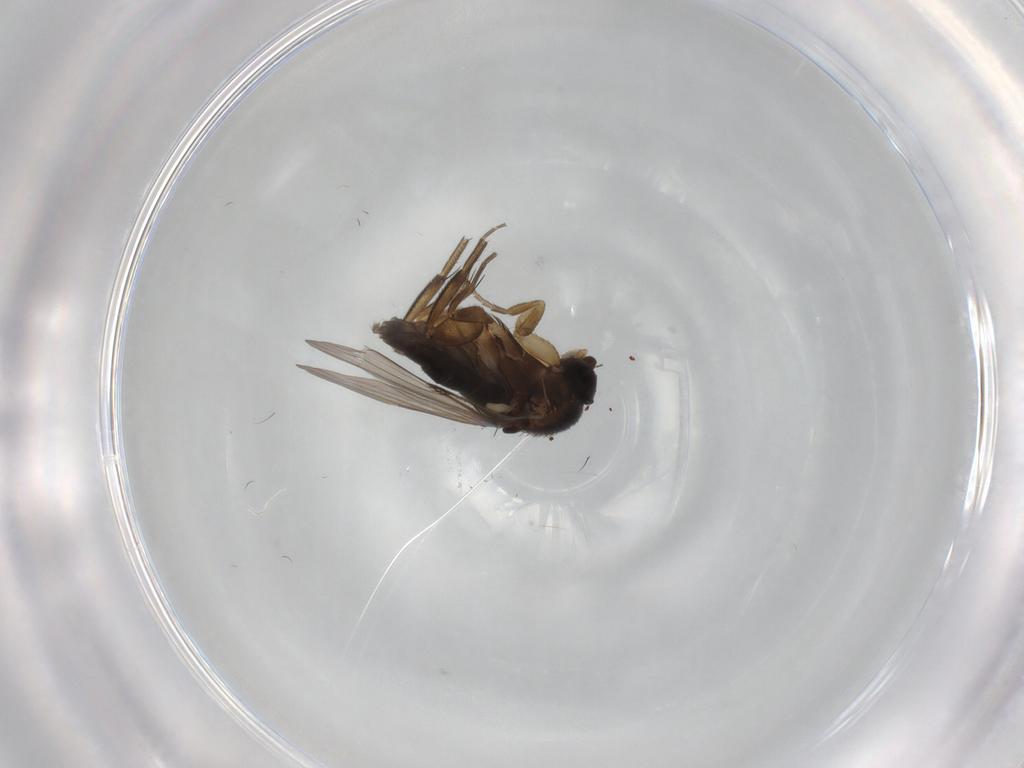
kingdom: Animalia
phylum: Arthropoda
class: Insecta
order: Diptera
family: Phoridae
